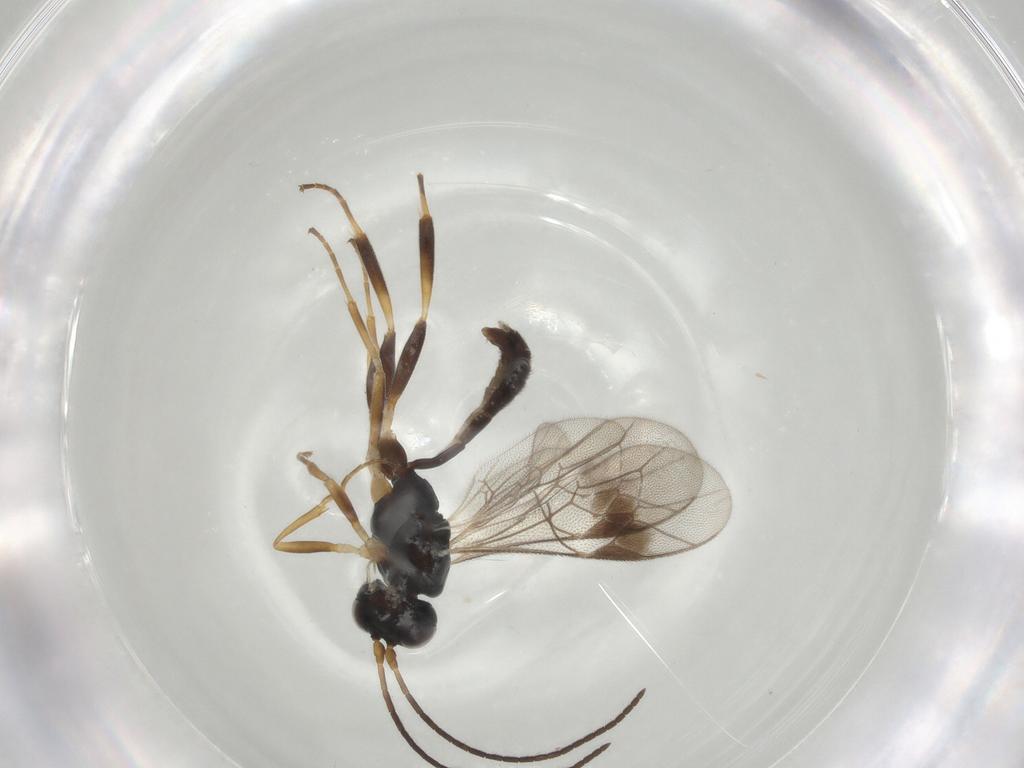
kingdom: Animalia
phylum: Arthropoda
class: Insecta
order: Hymenoptera
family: Ichneumonidae
